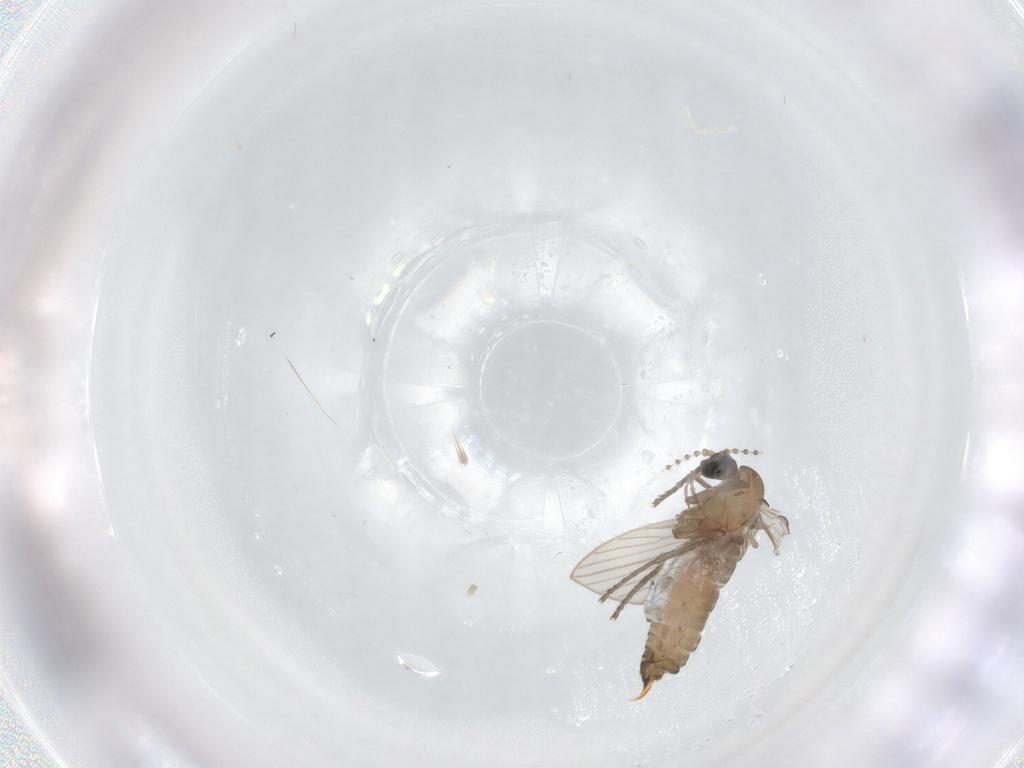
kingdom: Animalia
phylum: Arthropoda
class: Insecta
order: Diptera
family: Psychodidae
